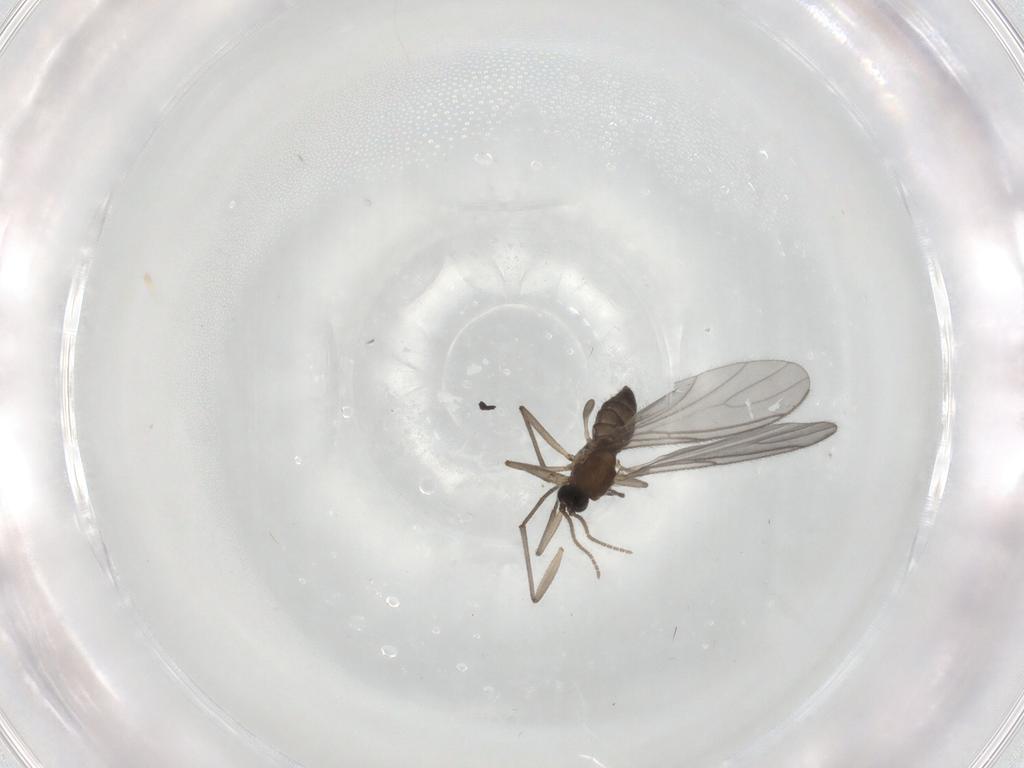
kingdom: Animalia
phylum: Arthropoda
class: Insecta
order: Diptera
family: Sciaridae
